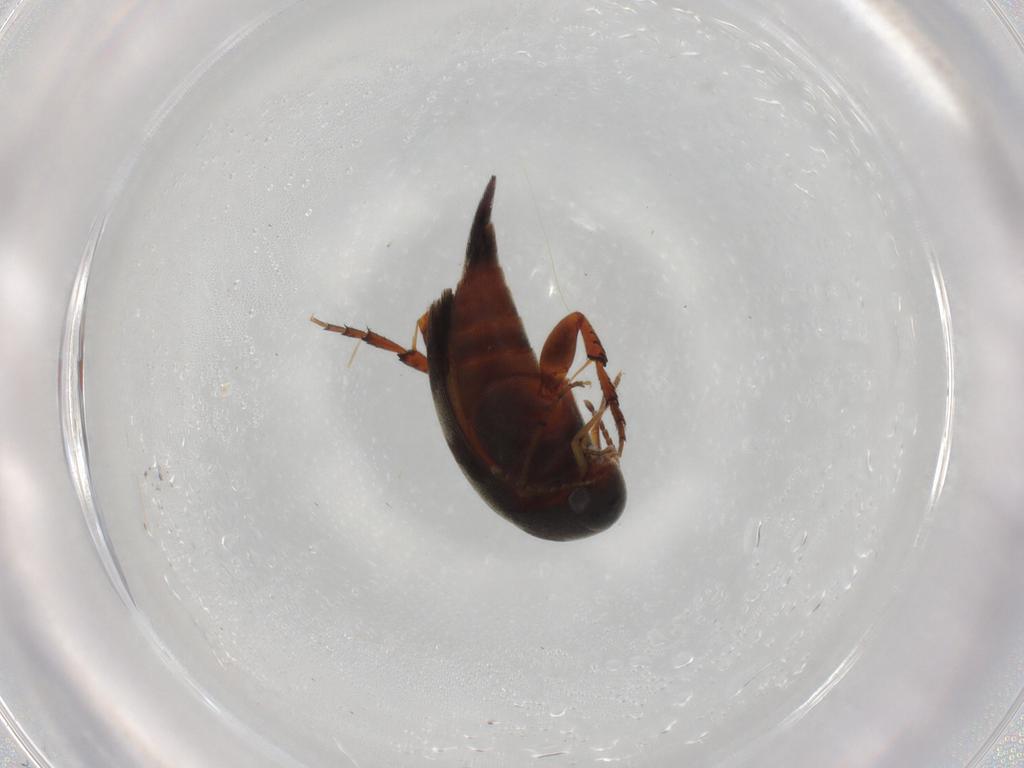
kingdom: Animalia
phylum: Arthropoda
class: Insecta
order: Coleoptera
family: Mordellidae
